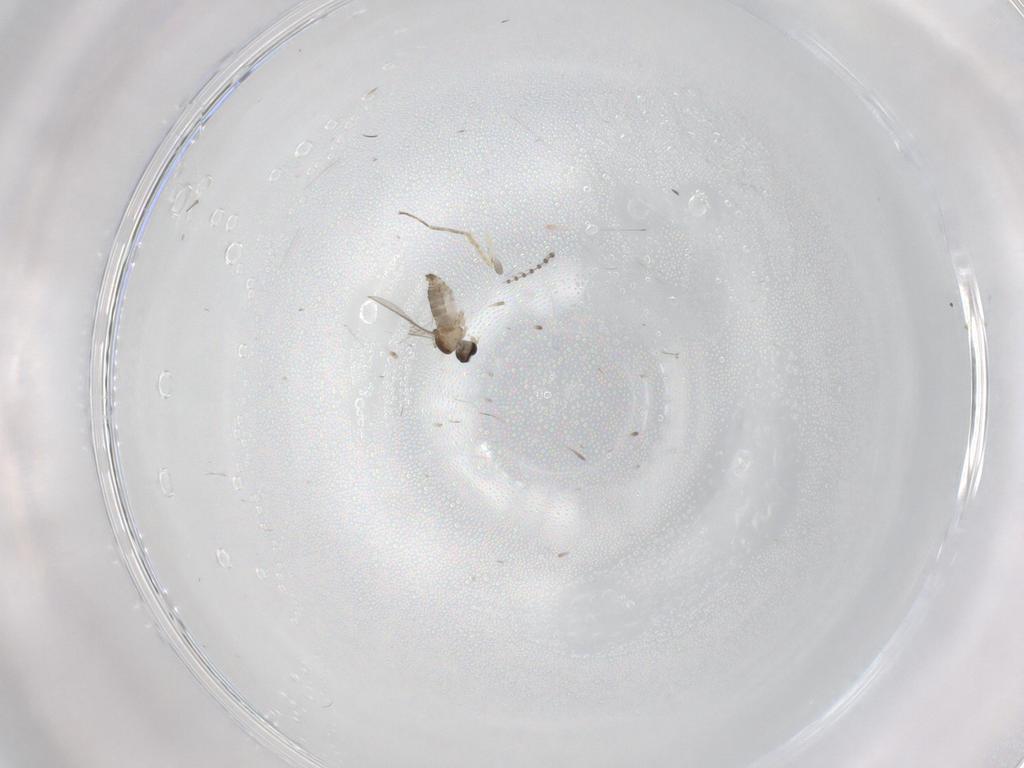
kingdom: Animalia
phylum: Arthropoda
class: Insecta
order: Diptera
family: Cecidomyiidae
